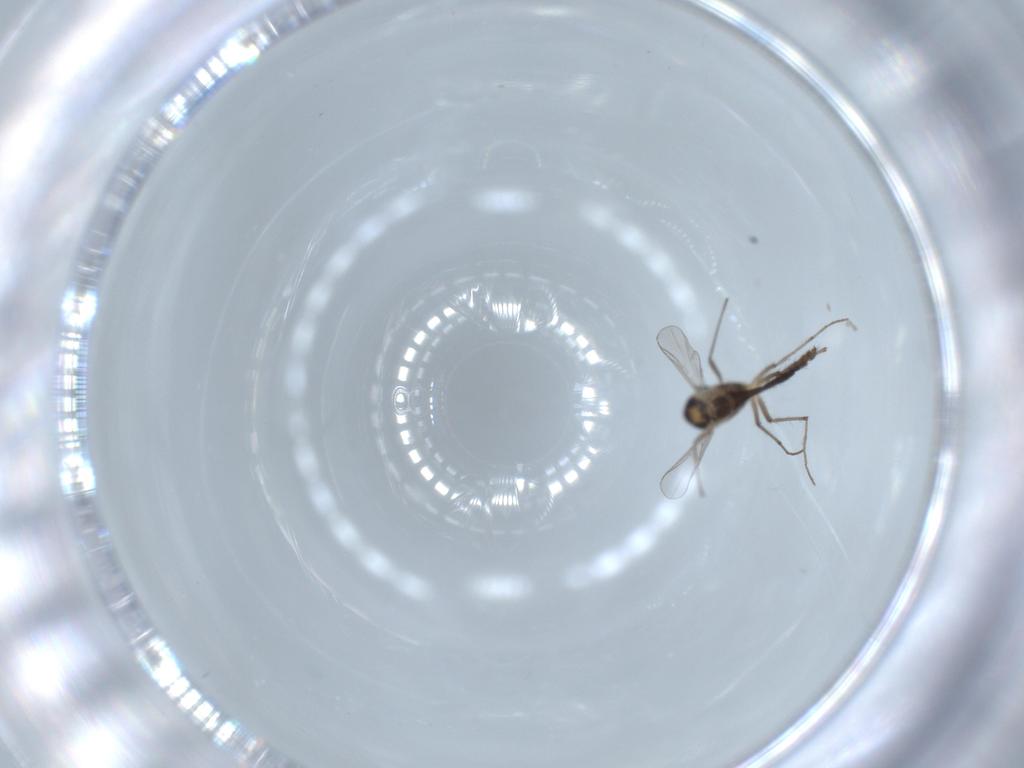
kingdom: Animalia
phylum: Arthropoda
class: Insecta
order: Diptera
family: Chironomidae
